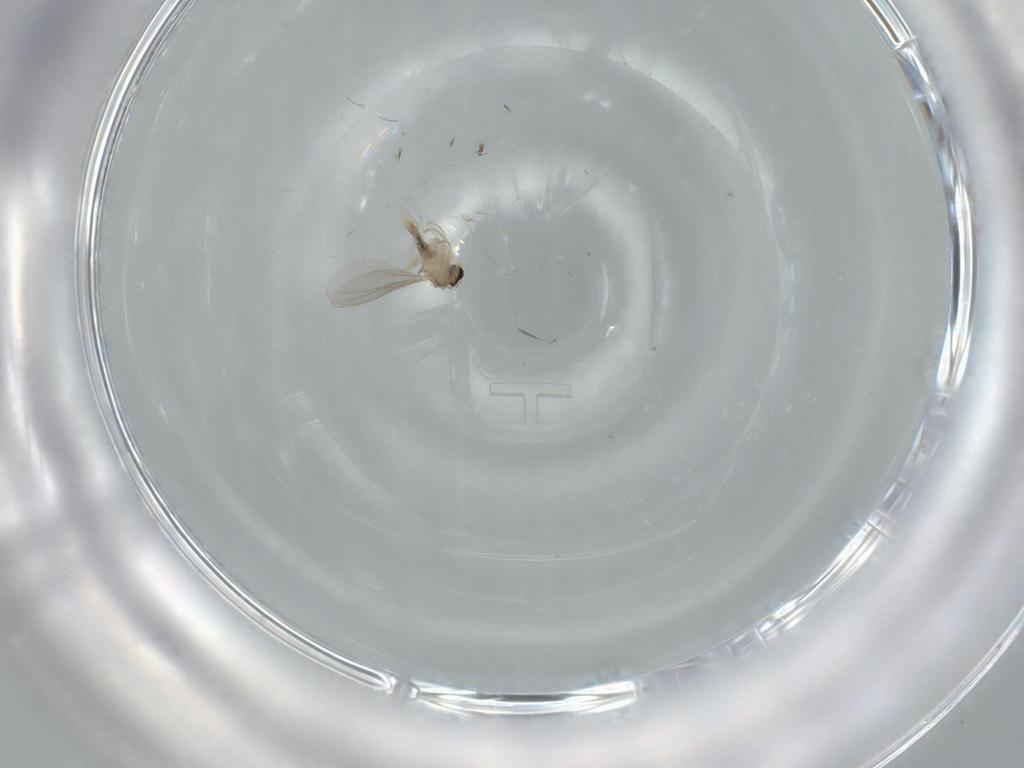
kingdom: Animalia
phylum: Arthropoda
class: Insecta
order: Diptera
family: Cecidomyiidae
